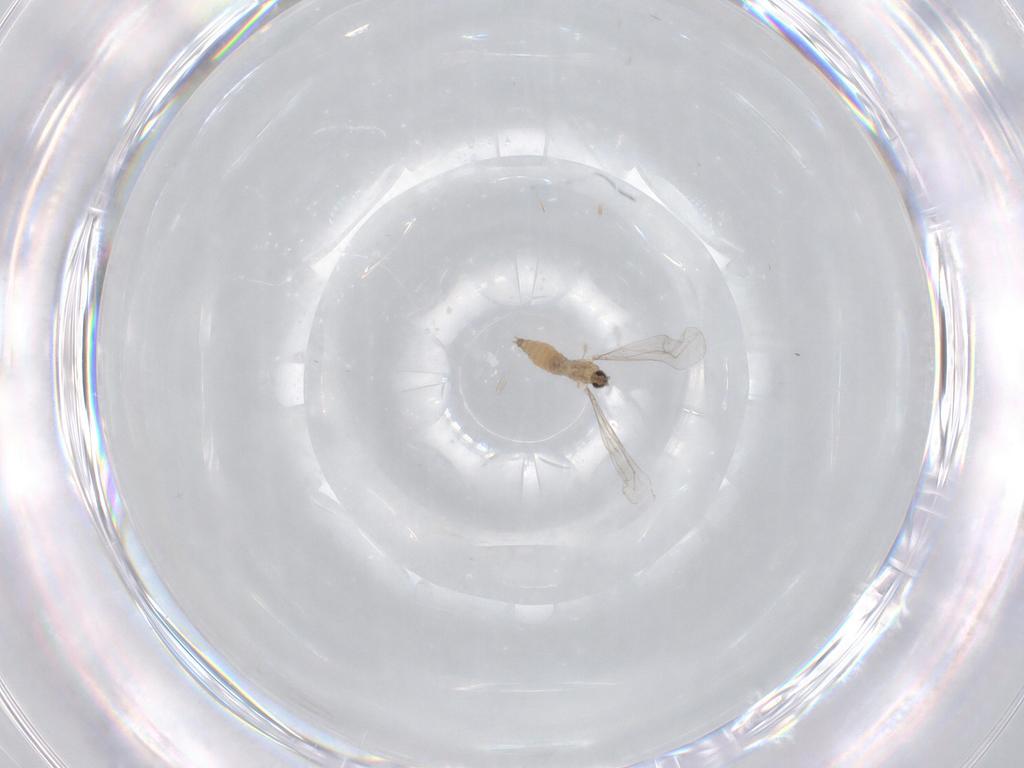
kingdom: Animalia
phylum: Arthropoda
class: Insecta
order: Diptera
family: Cecidomyiidae
